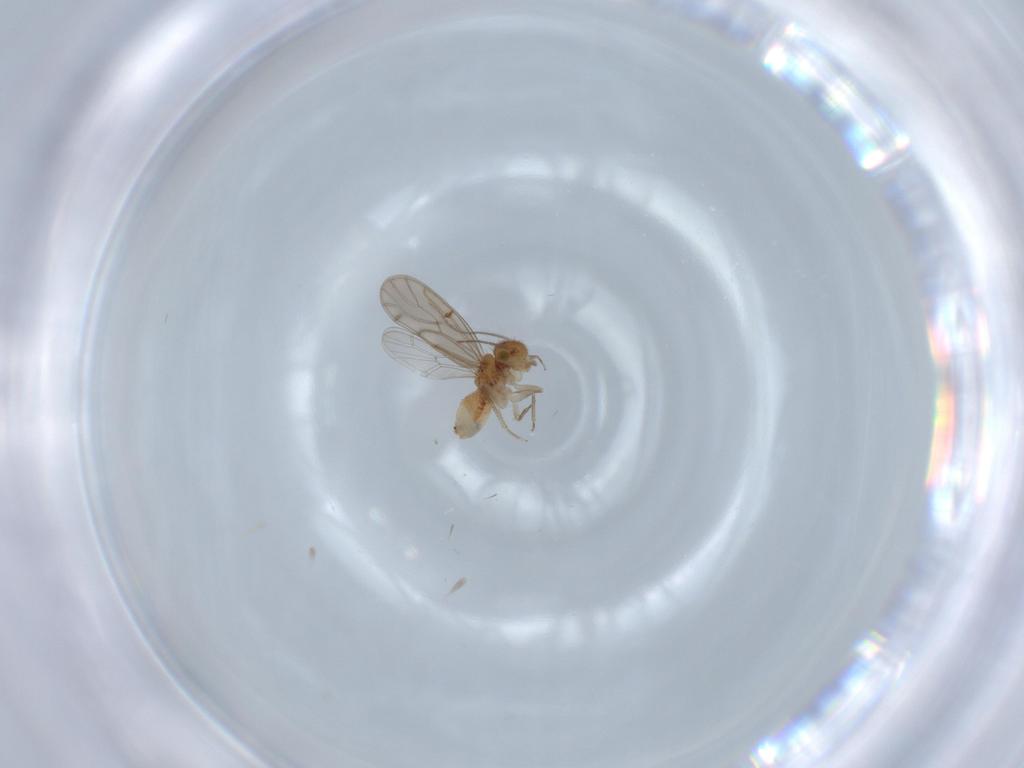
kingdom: Animalia
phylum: Arthropoda
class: Insecta
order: Psocodea
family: Ectopsocidae
